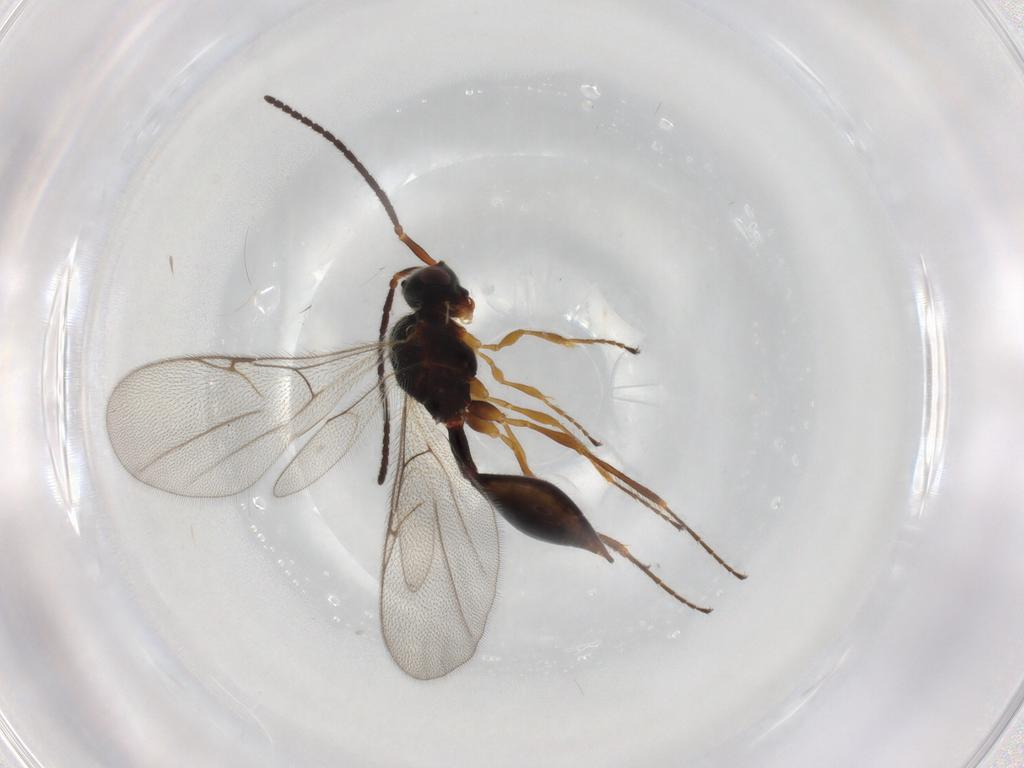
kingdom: Animalia
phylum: Arthropoda
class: Insecta
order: Hymenoptera
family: Diapriidae
